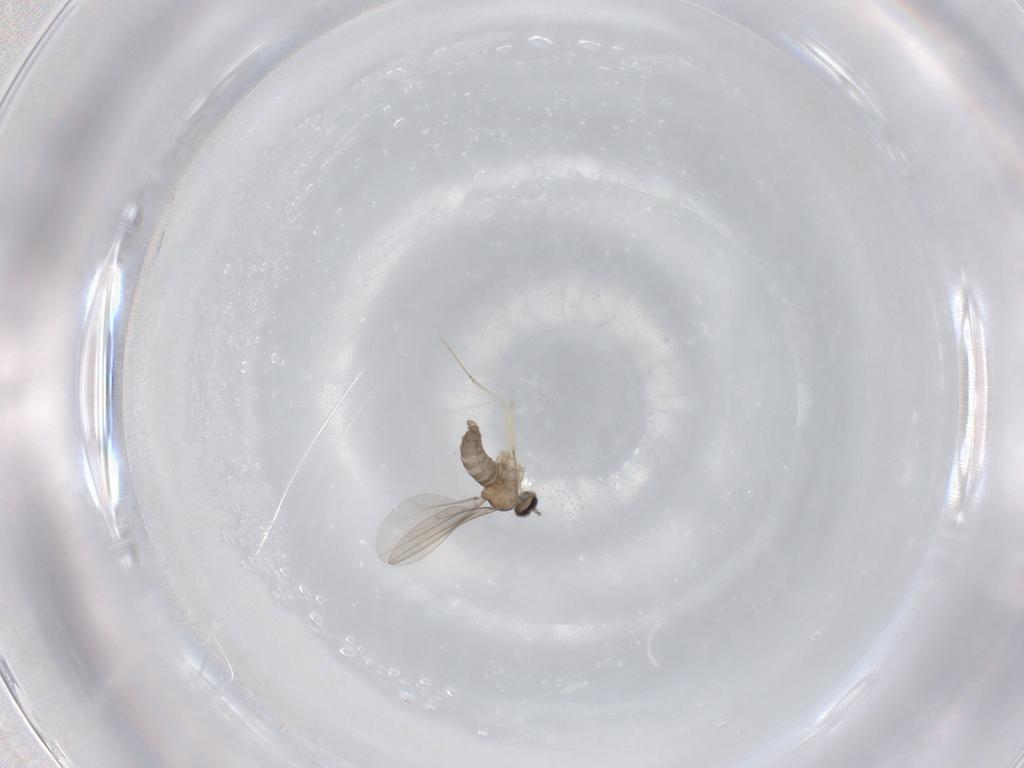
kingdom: Animalia
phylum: Arthropoda
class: Insecta
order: Diptera
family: Cecidomyiidae
